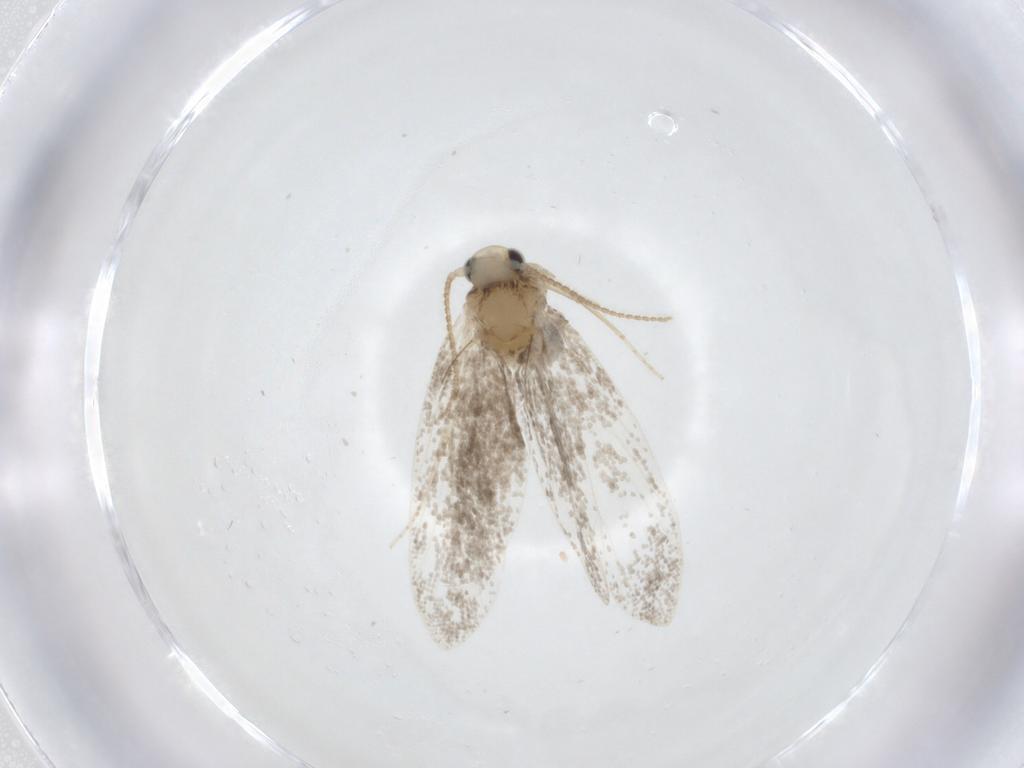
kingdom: Animalia
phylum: Arthropoda
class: Insecta
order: Lepidoptera
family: Psychidae
